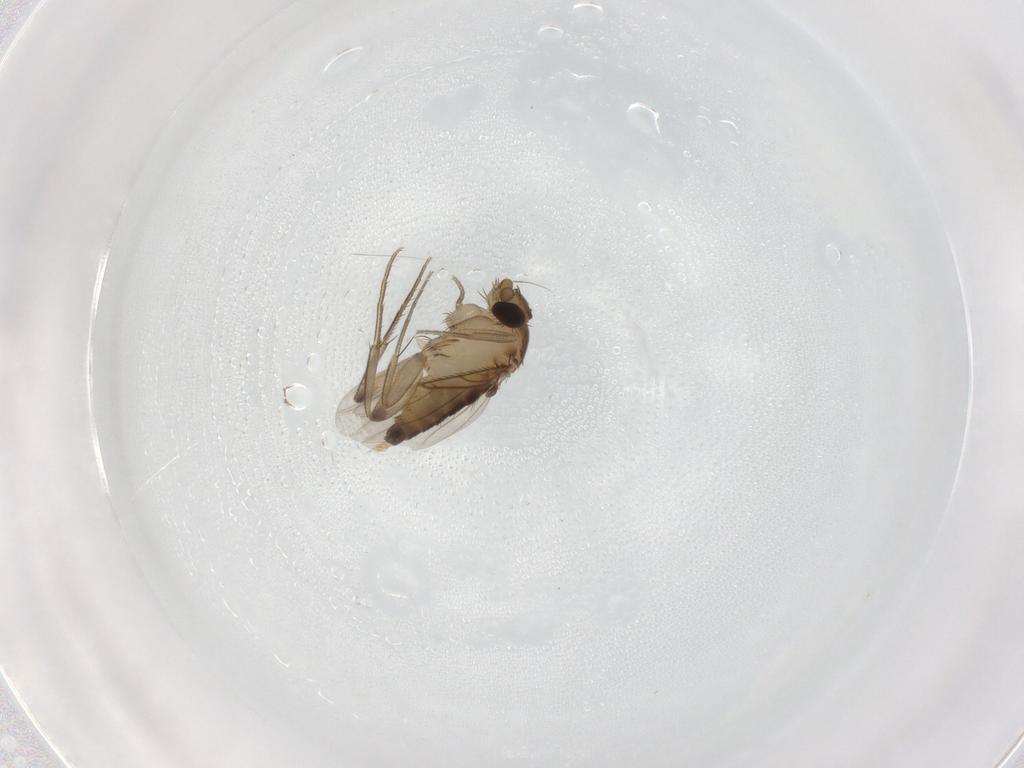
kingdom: Animalia
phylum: Arthropoda
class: Insecta
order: Diptera
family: Phoridae
